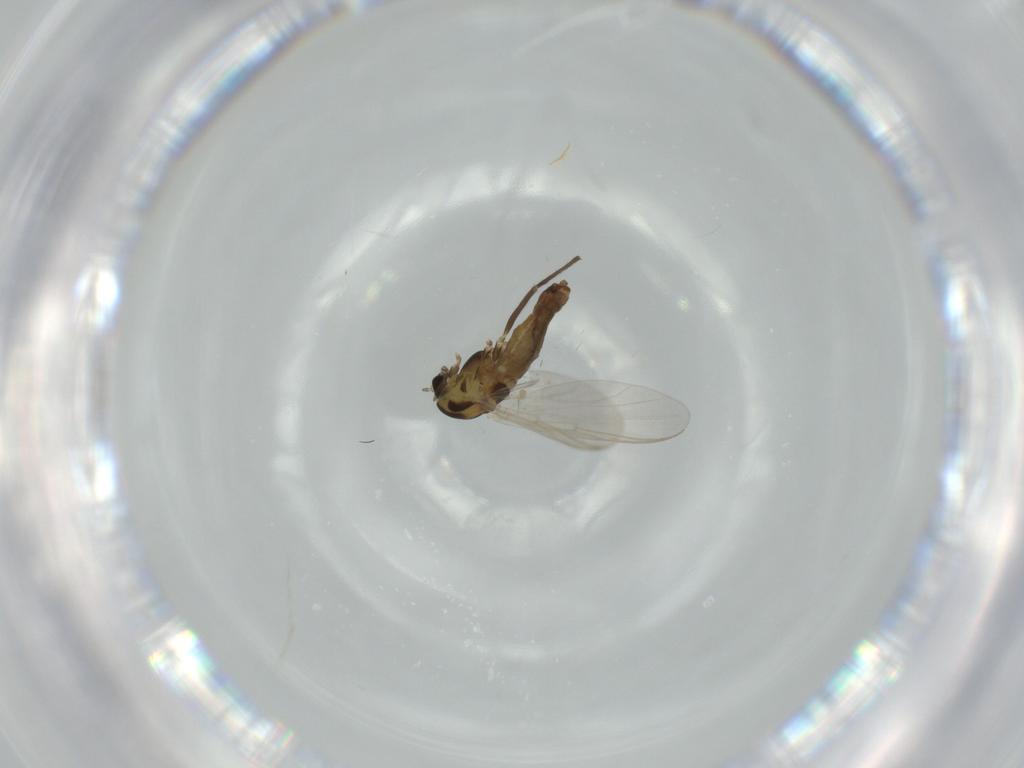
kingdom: Animalia
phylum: Arthropoda
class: Insecta
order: Diptera
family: Chironomidae
